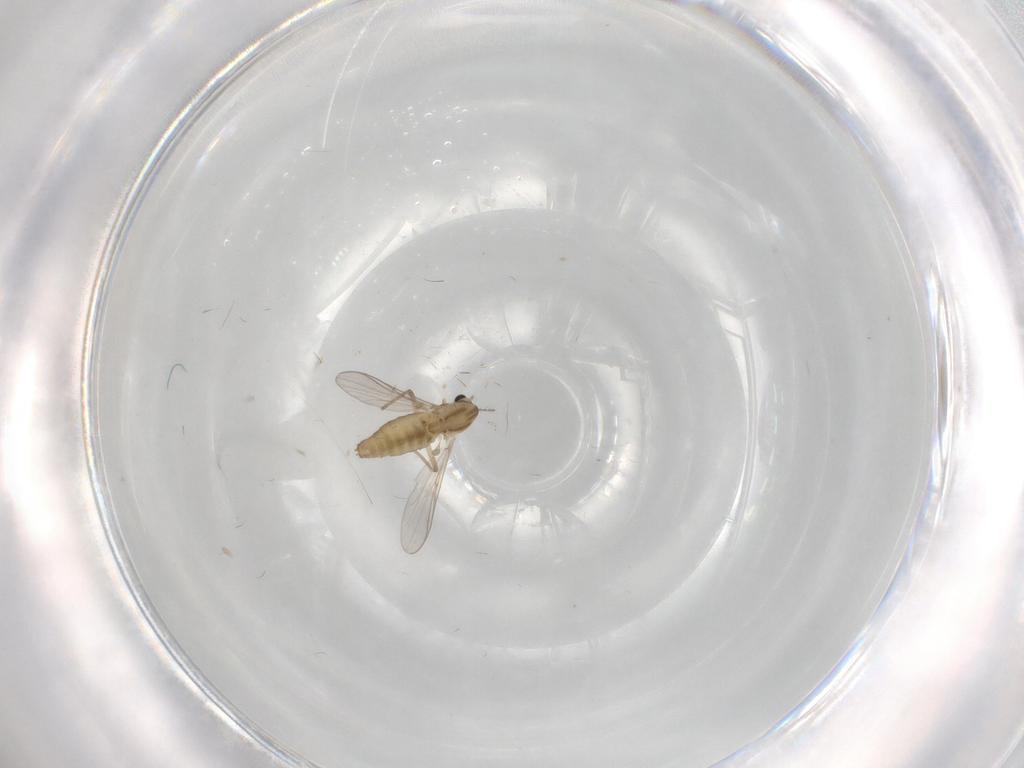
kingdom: Animalia
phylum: Arthropoda
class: Insecta
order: Diptera
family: Chironomidae
